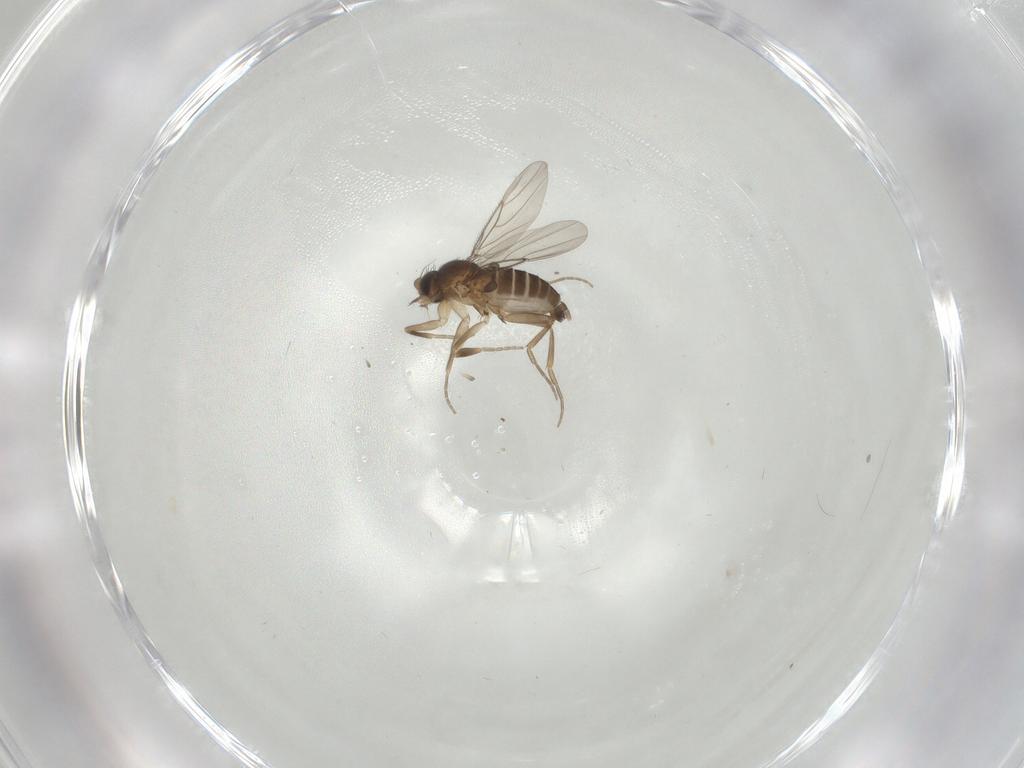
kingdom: Animalia
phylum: Arthropoda
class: Insecta
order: Diptera
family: Phoridae
